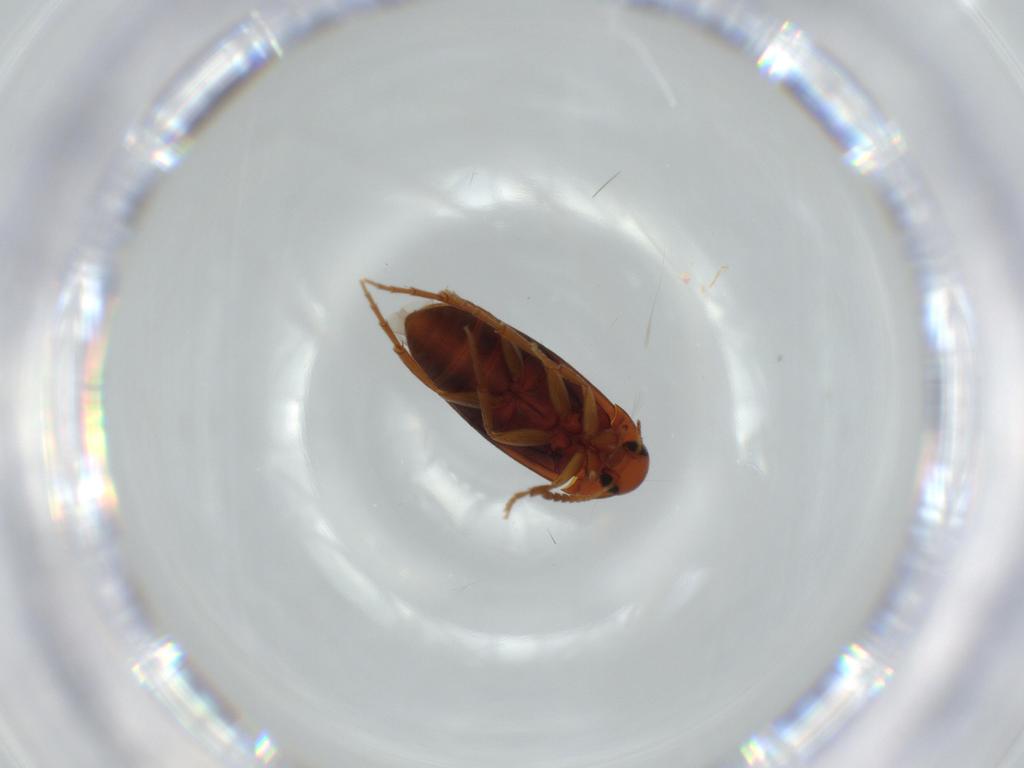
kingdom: Animalia
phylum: Arthropoda
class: Insecta
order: Coleoptera
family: Scraptiidae
